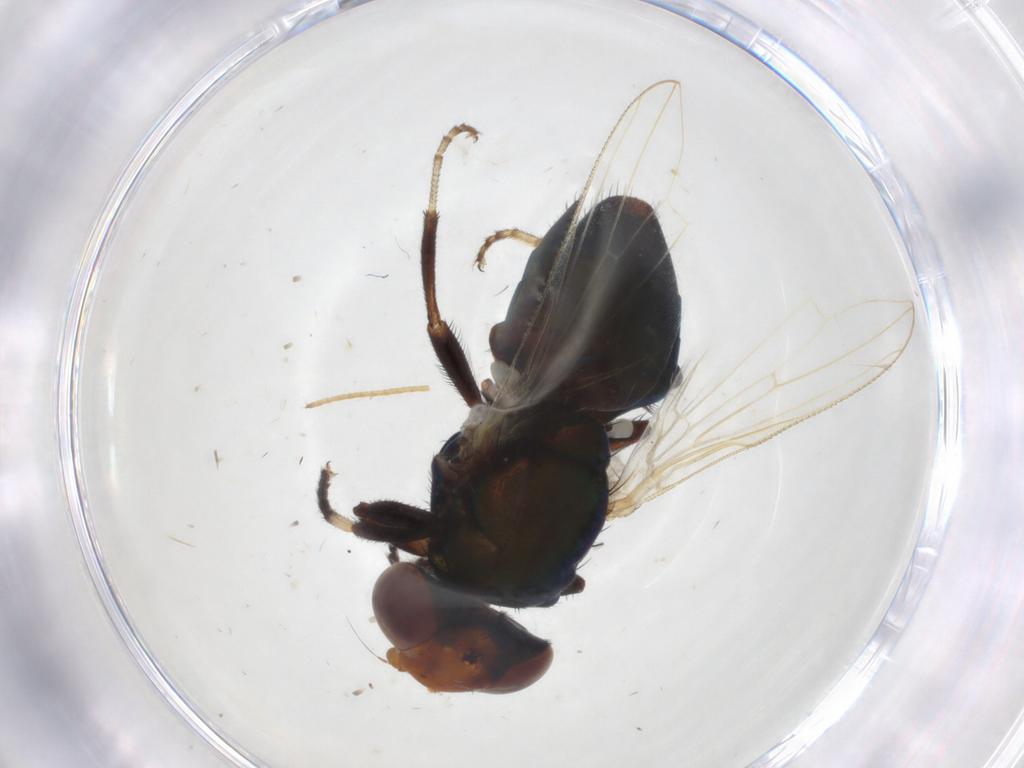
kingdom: Animalia
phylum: Arthropoda
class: Insecta
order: Diptera
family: Ulidiidae
